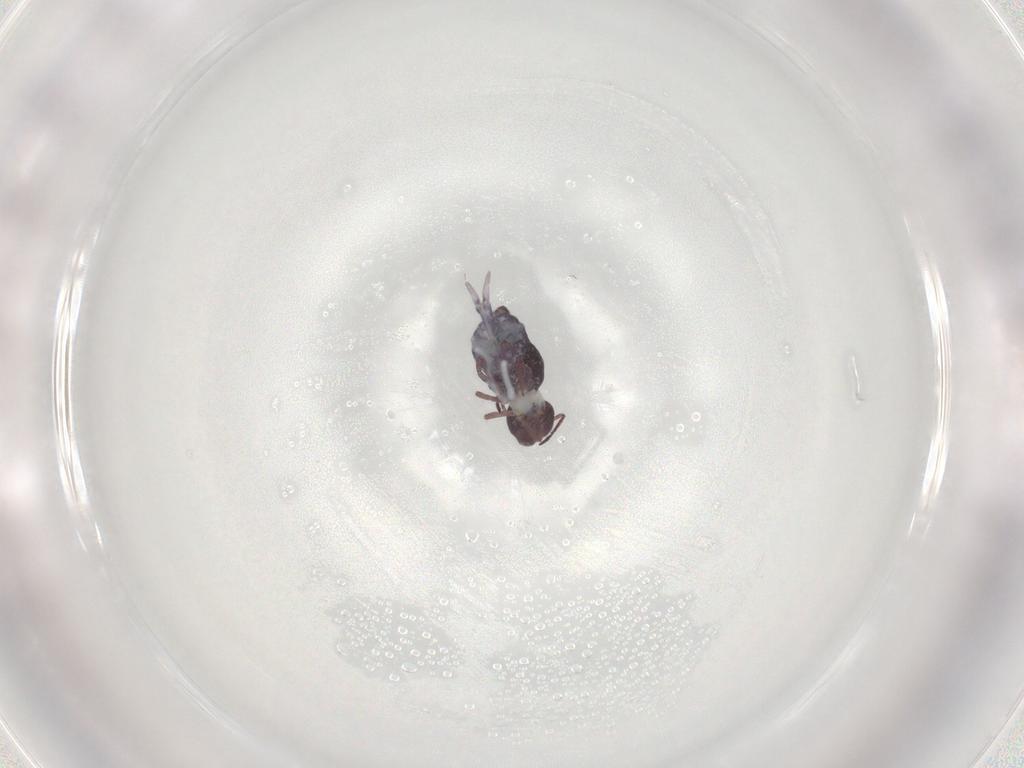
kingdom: Animalia
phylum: Arthropoda
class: Collembola
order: Symphypleona
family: Bourletiellidae
